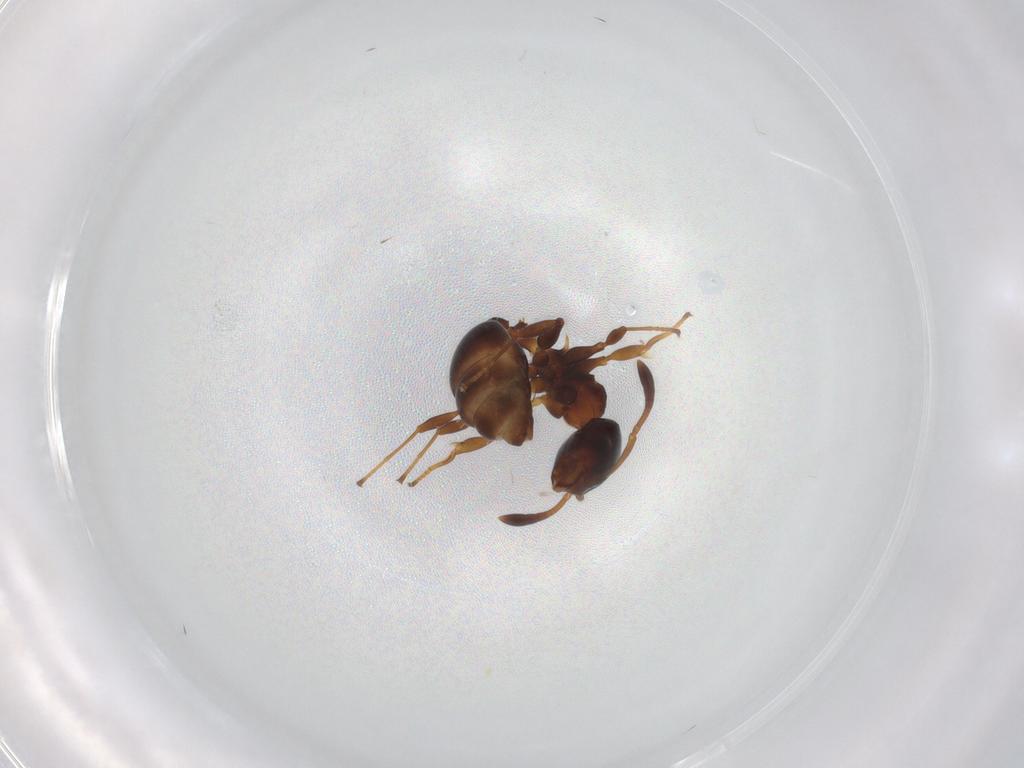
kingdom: Animalia
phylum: Arthropoda
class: Insecta
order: Hymenoptera
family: Formicidae
